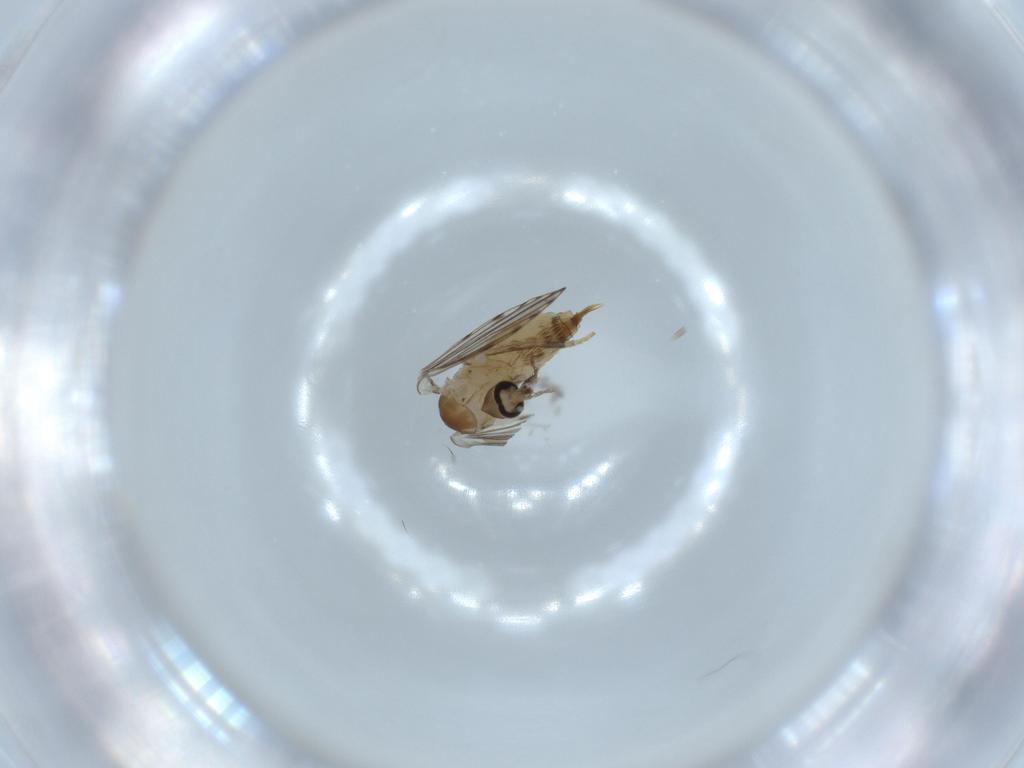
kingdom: Animalia
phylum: Arthropoda
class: Insecta
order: Diptera
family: Psychodidae
